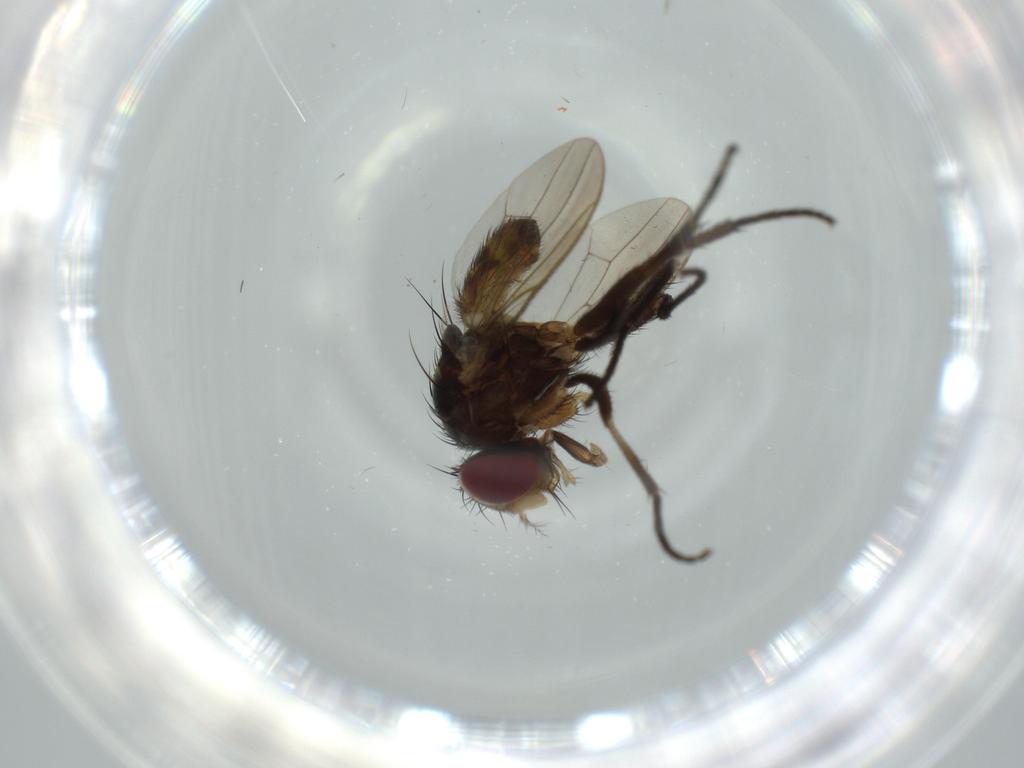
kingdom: Animalia
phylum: Arthropoda
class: Insecta
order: Diptera
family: Anthomyiidae
